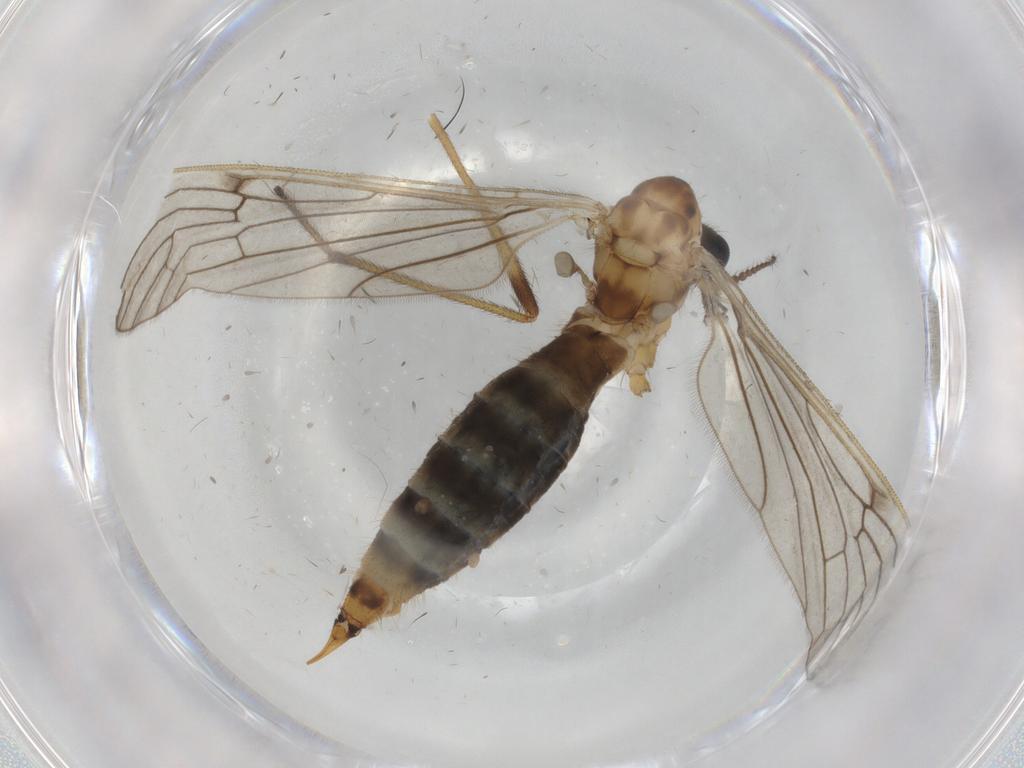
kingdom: Animalia
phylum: Arthropoda
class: Insecta
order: Diptera
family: Limoniidae
